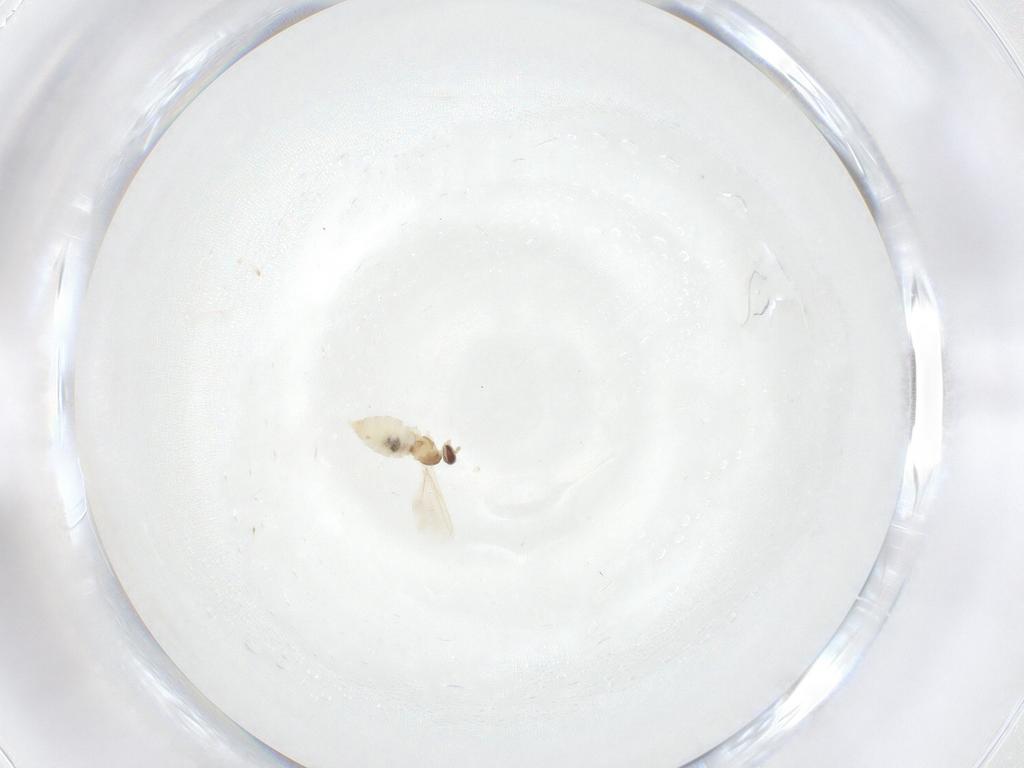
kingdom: Animalia
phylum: Arthropoda
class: Insecta
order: Diptera
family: Cecidomyiidae
